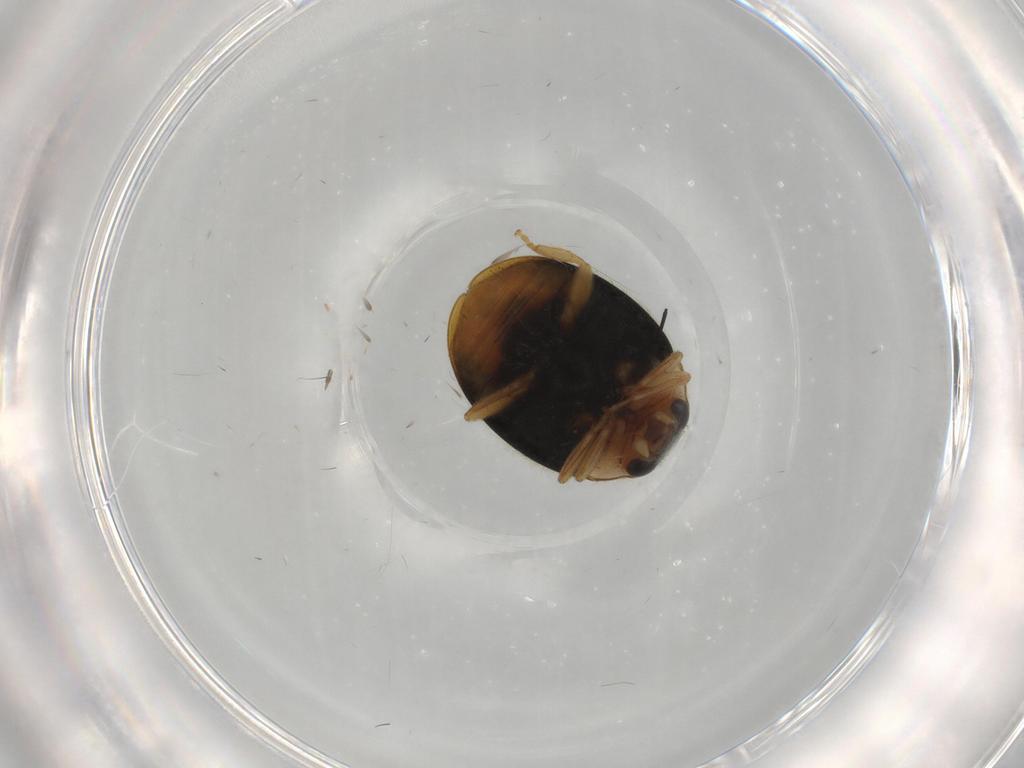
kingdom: Animalia
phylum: Arthropoda
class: Insecta
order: Coleoptera
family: Coccinellidae
